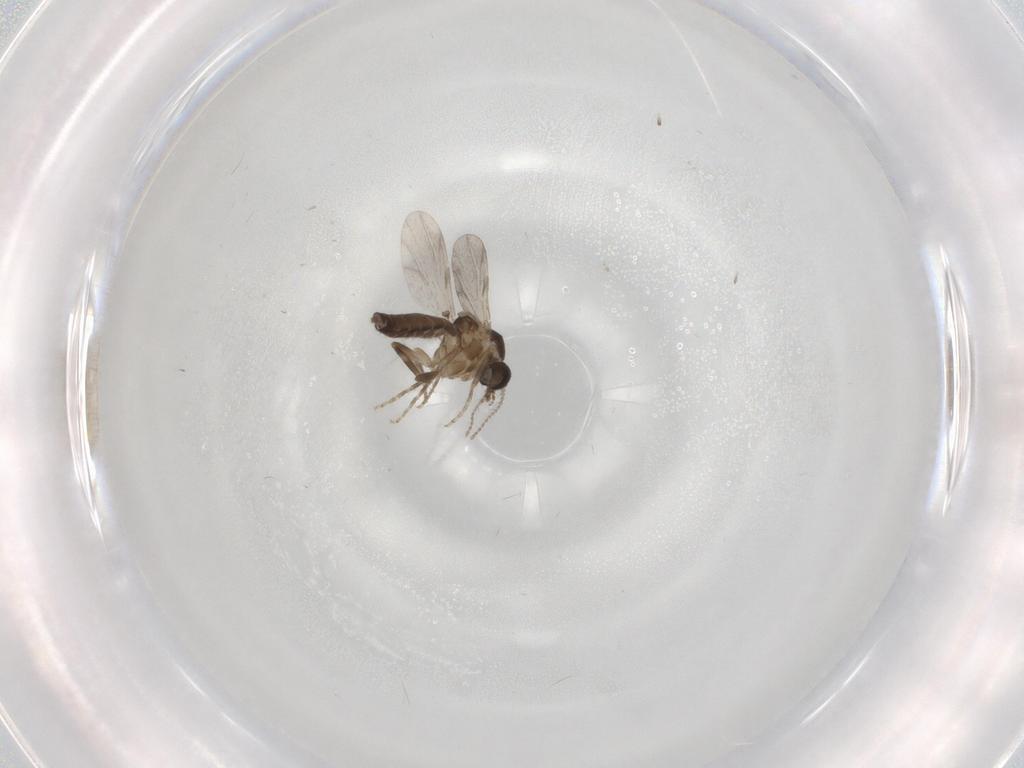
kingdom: Animalia
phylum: Arthropoda
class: Insecta
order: Diptera
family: Ceratopogonidae
